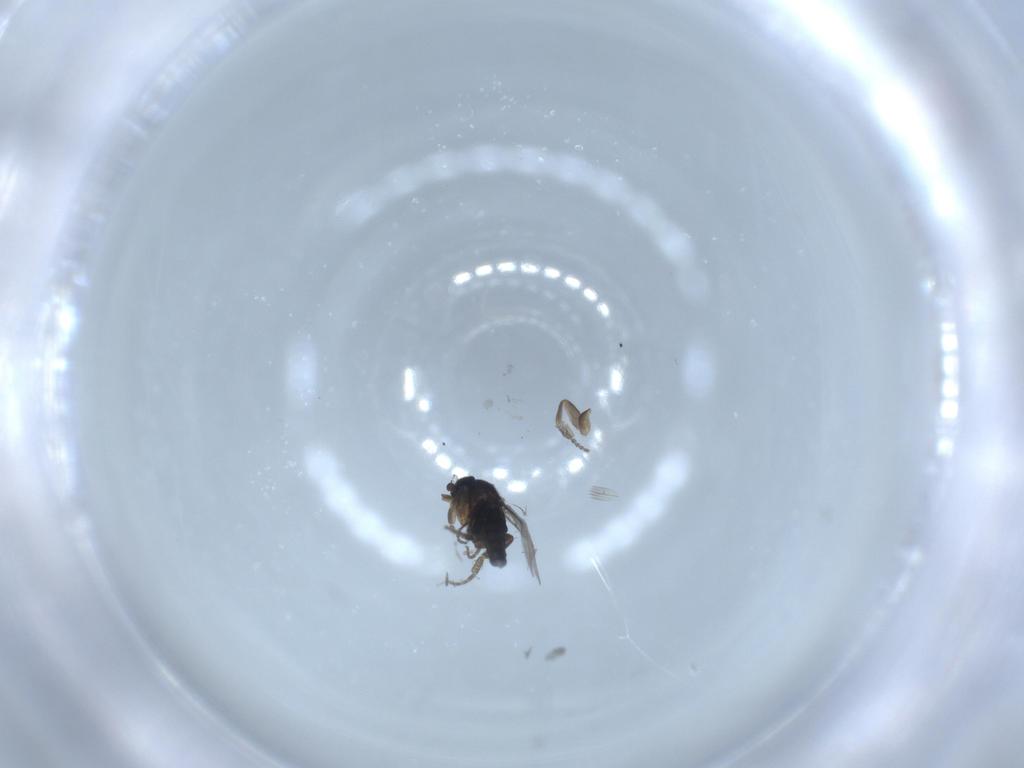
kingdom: Animalia
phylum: Arthropoda
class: Insecta
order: Diptera
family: Phoridae
